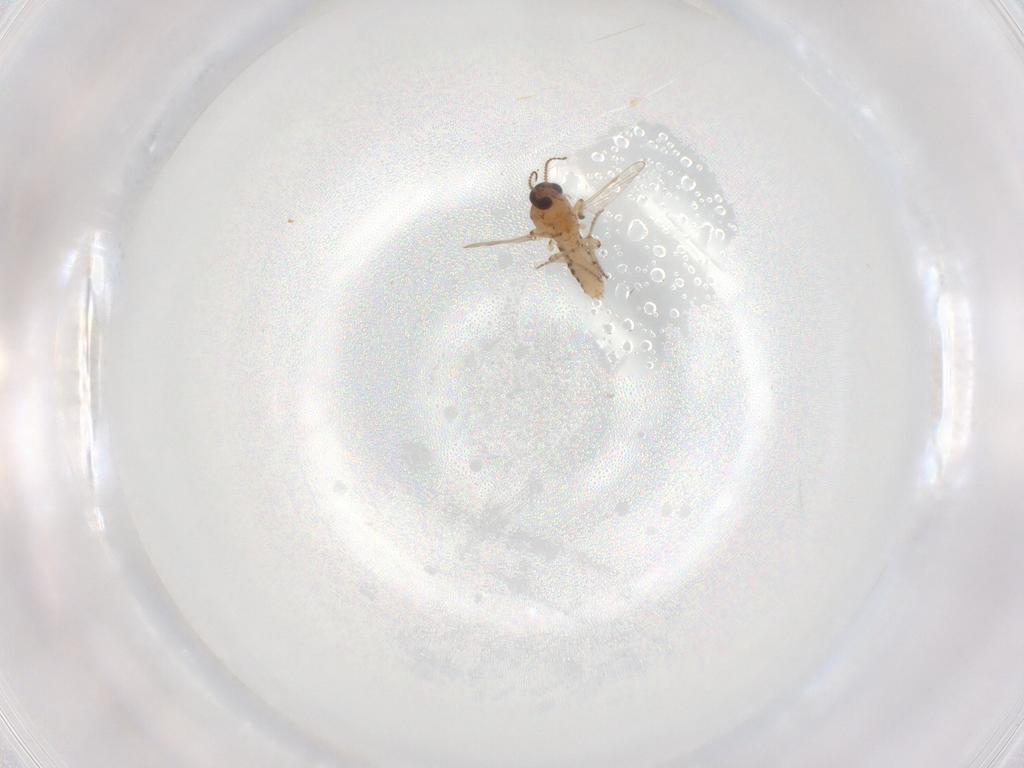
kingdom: Animalia
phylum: Arthropoda
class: Insecta
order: Diptera
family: Ceratopogonidae
